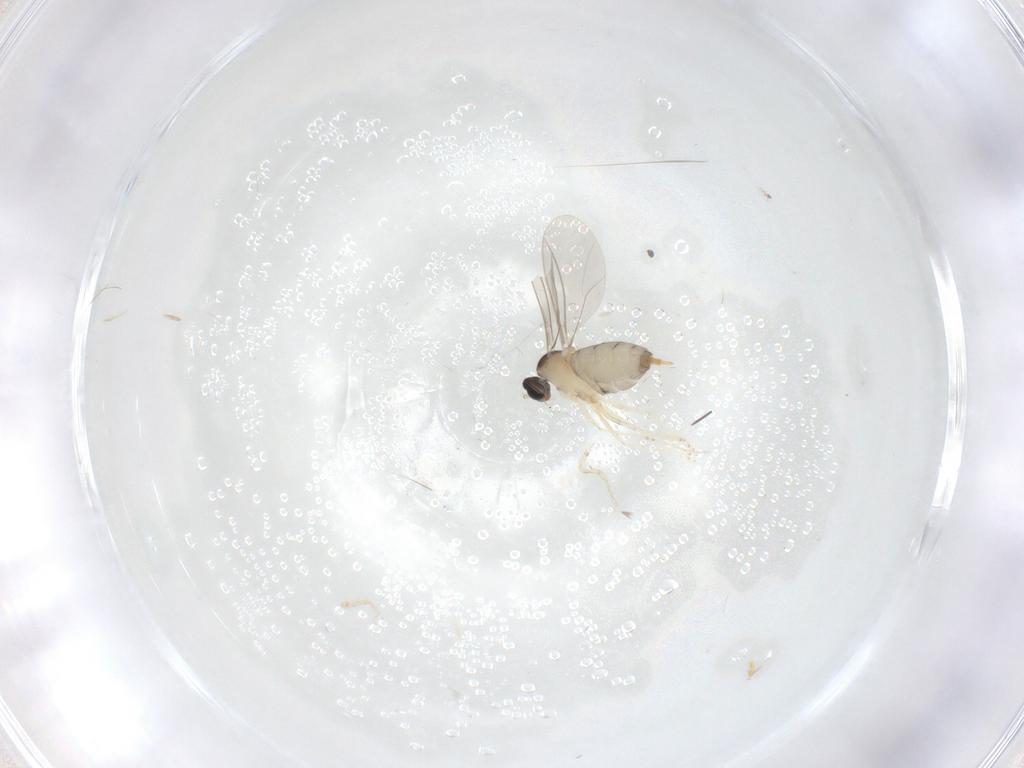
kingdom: Animalia
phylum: Arthropoda
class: Insecta
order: Diptera
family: Cecidomyiidae
